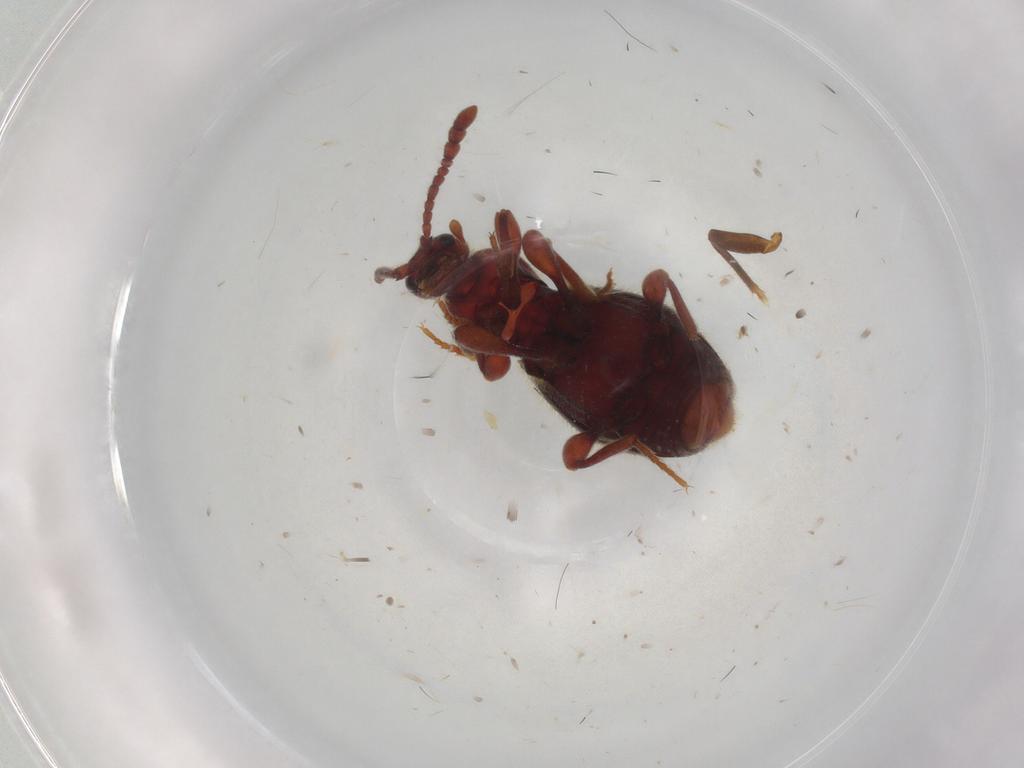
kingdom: Animalia
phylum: Arthropoda
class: Insecta
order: Coleoptera
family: Staphylinidae
